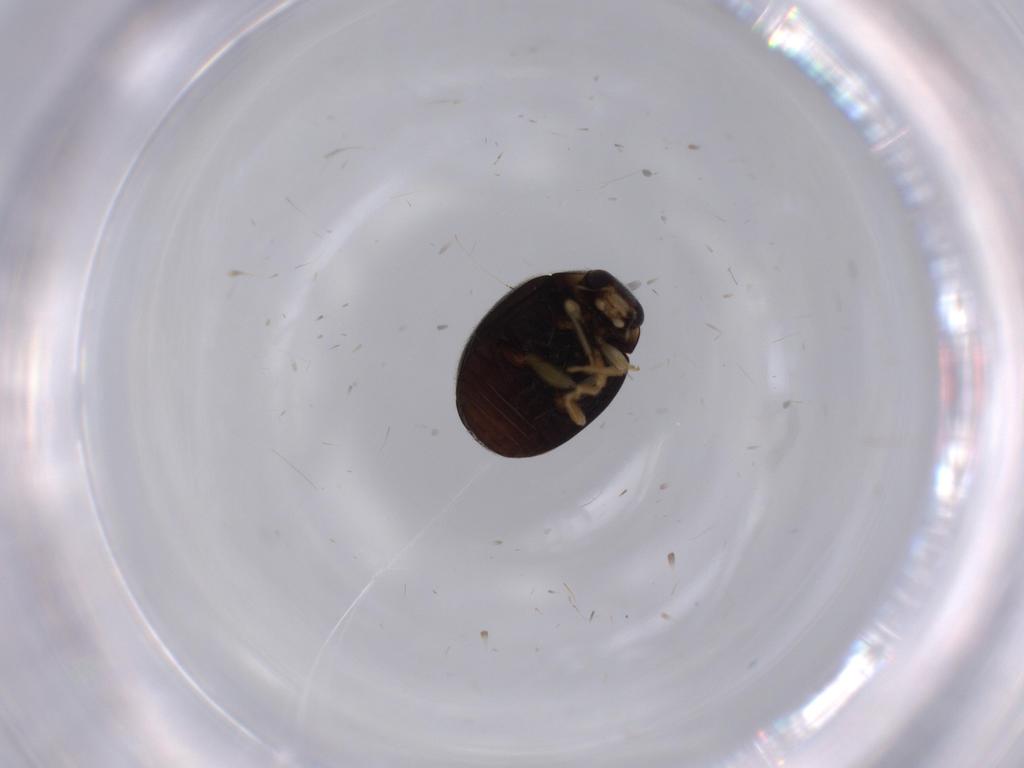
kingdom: Animalia
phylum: Arthropoda
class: Insecta
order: Coleoptera
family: Coccinellidae
